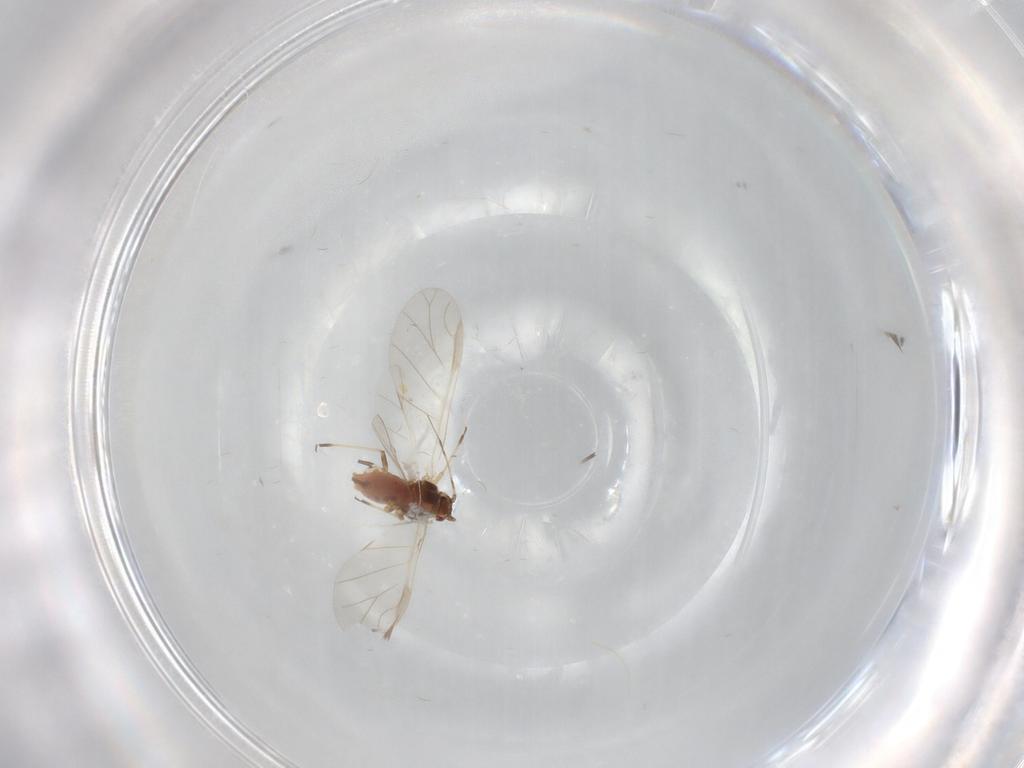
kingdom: Animalia
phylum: Arthropoda
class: Insecta
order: Hemiptera
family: Aphididae
